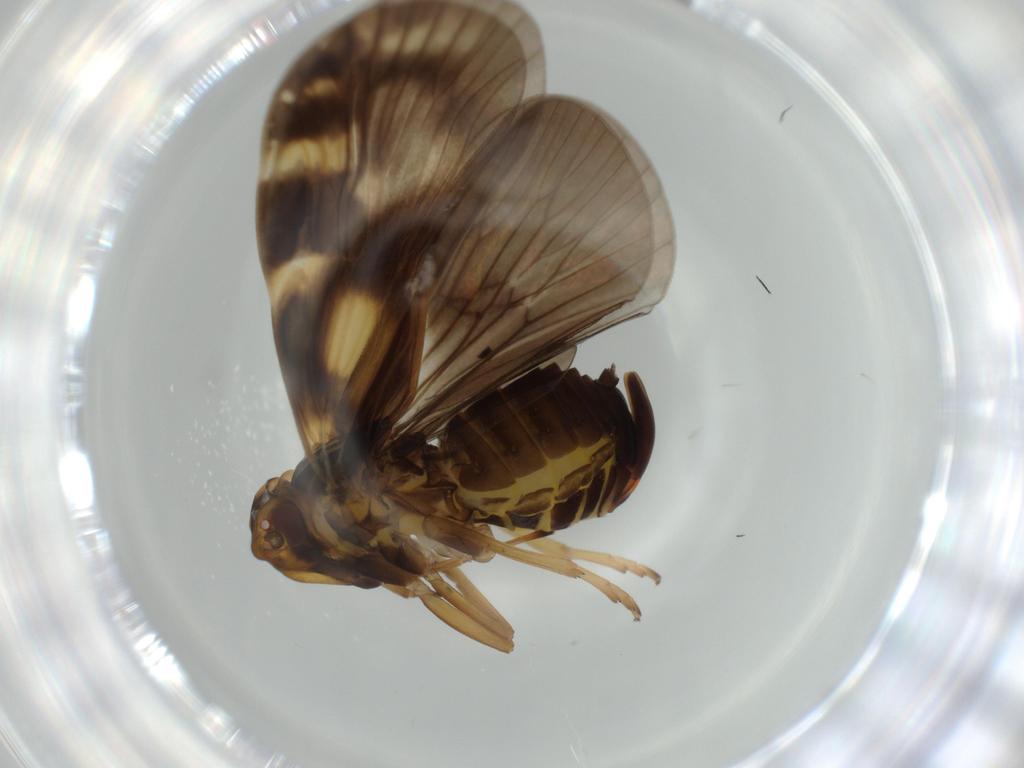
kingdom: Animalia
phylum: Arthropoda
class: Insecta
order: Hemiptera
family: Cixiidae
